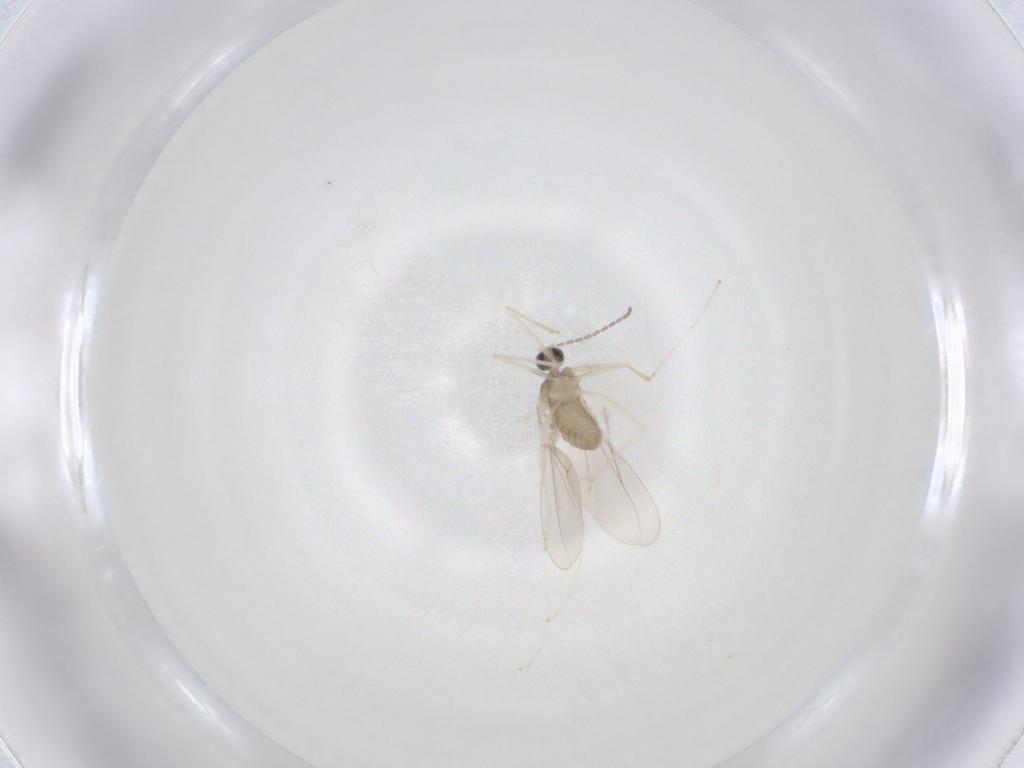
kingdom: Animalia
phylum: Arthropoda
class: Insecta
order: Diptera
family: Cecidomyiidae
